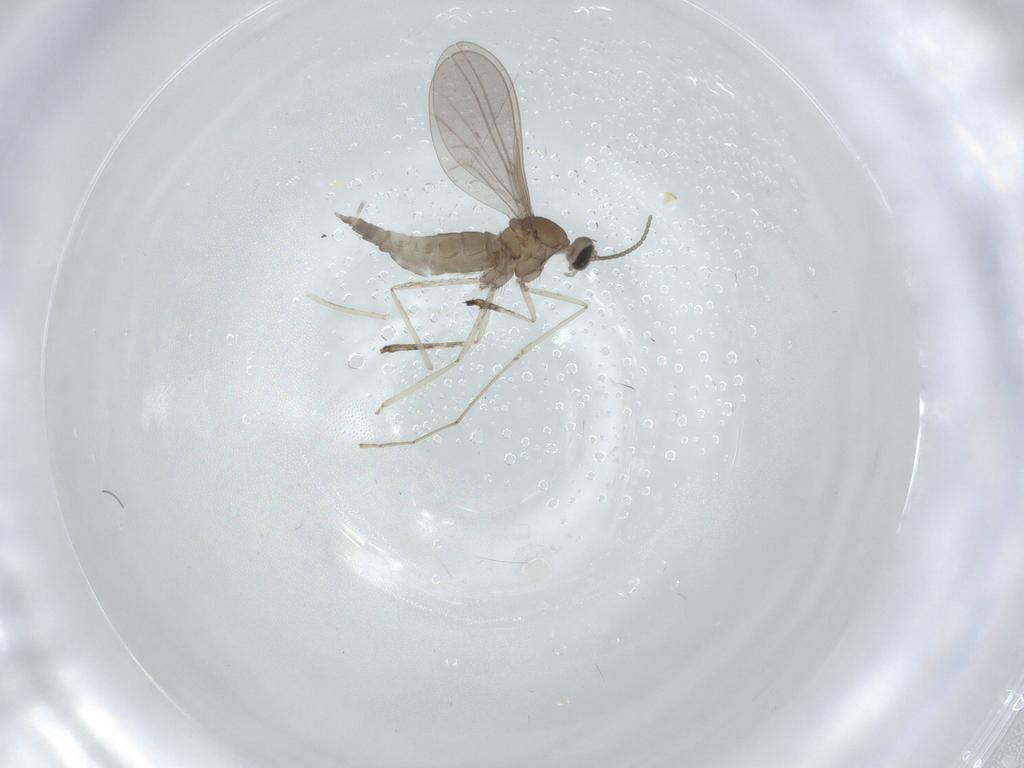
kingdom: Animalia
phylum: Arthropoda
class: Insecta
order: Diptera
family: Cecidomyiidae
